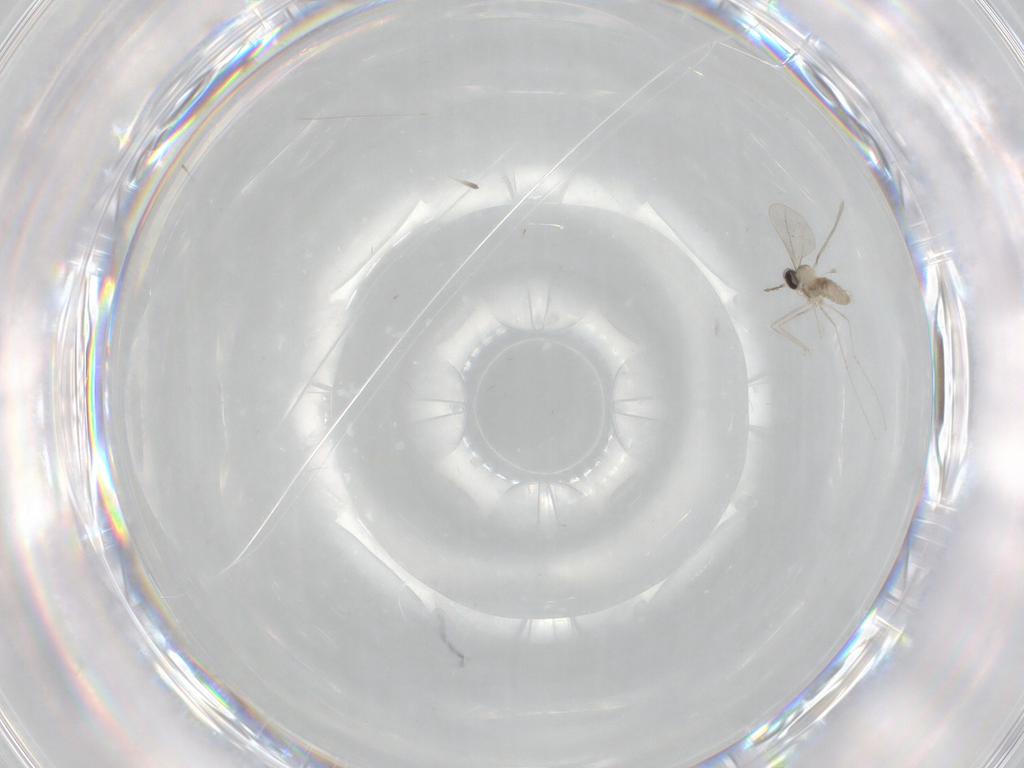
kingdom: Animalia
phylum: Arthropoda
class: Insecta
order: Diptera
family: Cecidomyiidae
